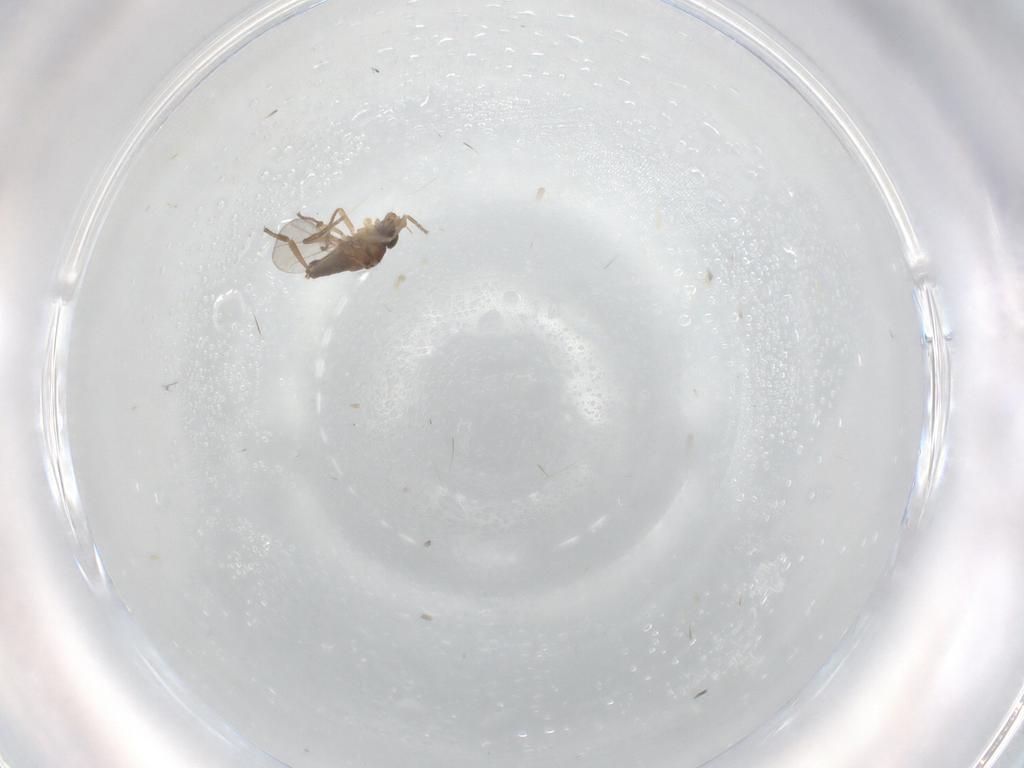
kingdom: Animalia
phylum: Arthropoda
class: Insecta
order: Diptera
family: Phoridae
